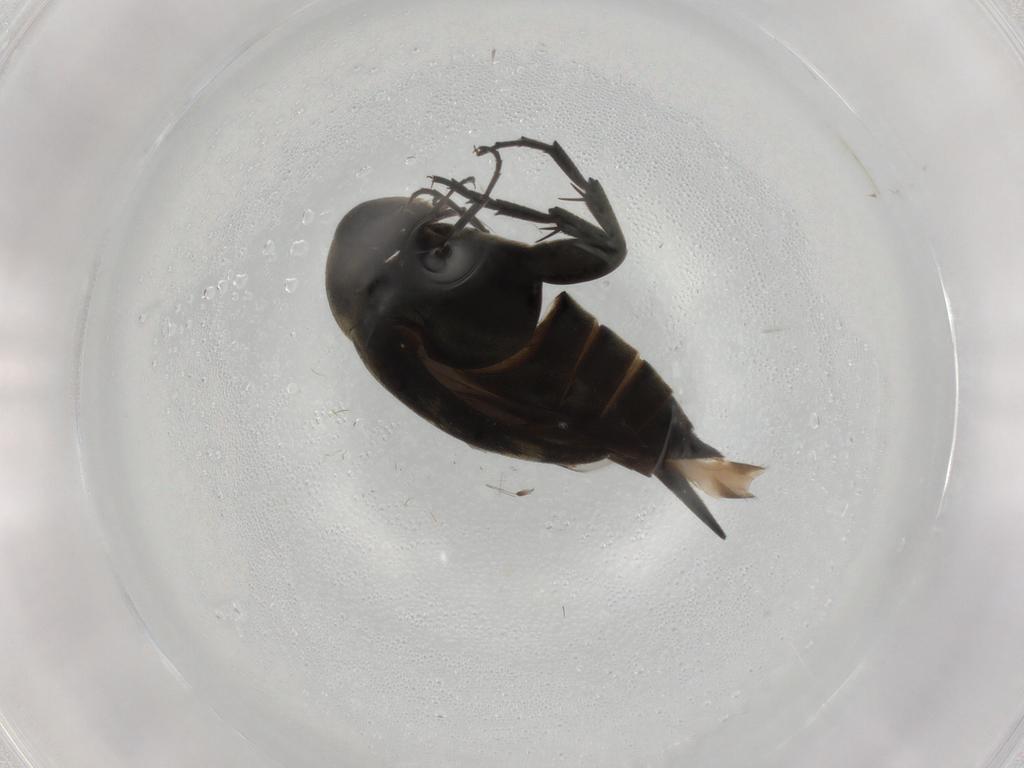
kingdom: Animalia
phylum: Arthropoda
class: Insecta
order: Coleoptera
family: Mordellidae
